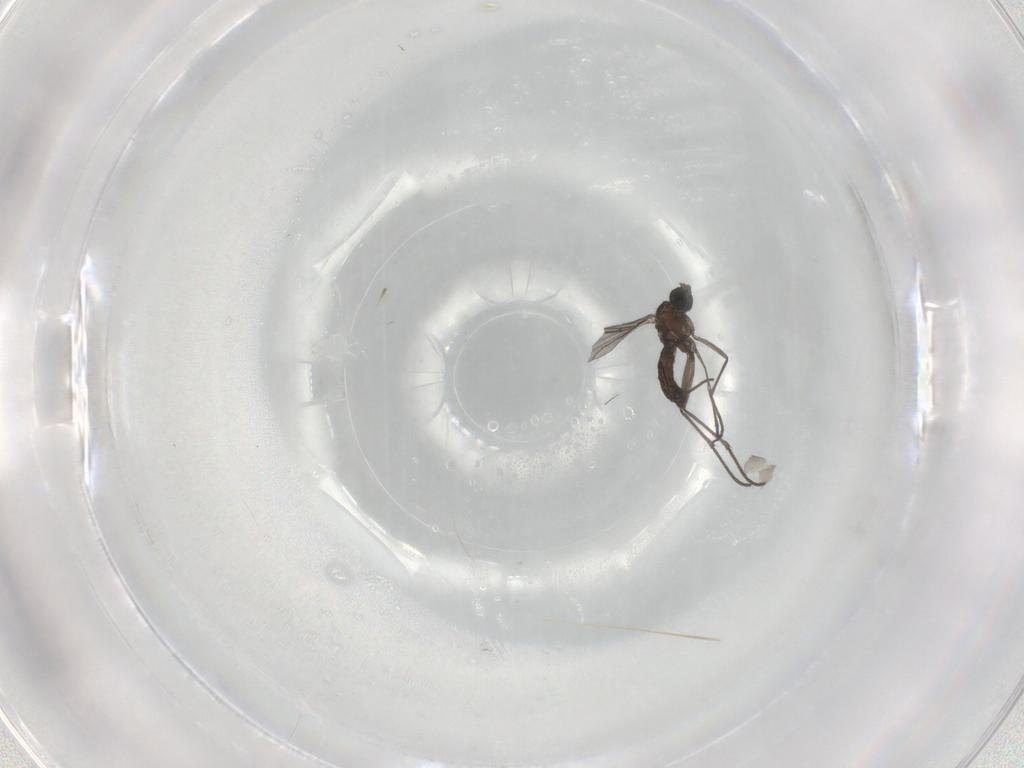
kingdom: Animalia
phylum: Arthropoda
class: Insecta
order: Diptera
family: Sciaridae
